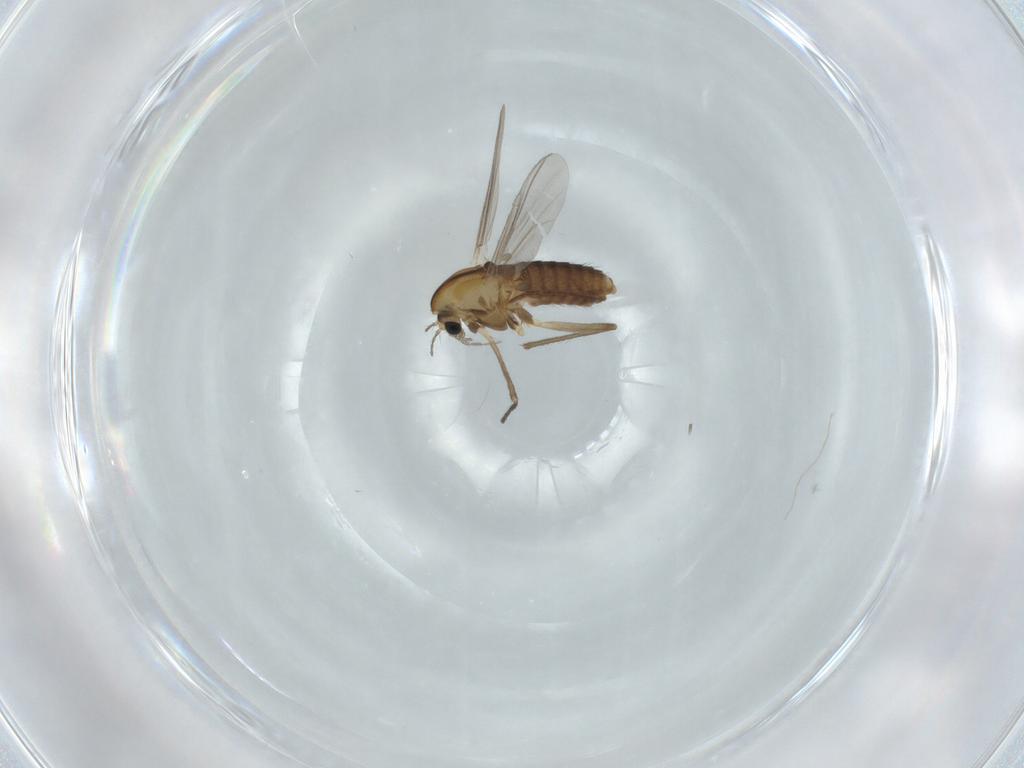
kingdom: Animalia
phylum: Arthropoda
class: Insecta
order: Diptera
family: Chironomidae
